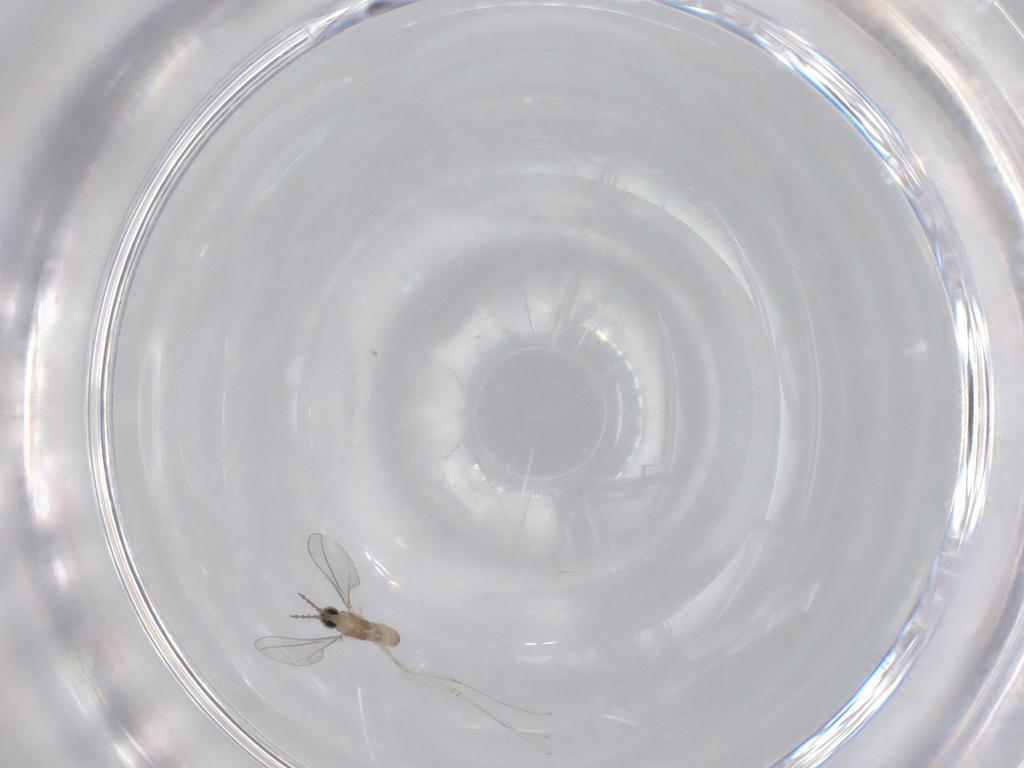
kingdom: Animalia
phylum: Arthropoda
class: Insecta
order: Diptera
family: Cecidomyiidae
